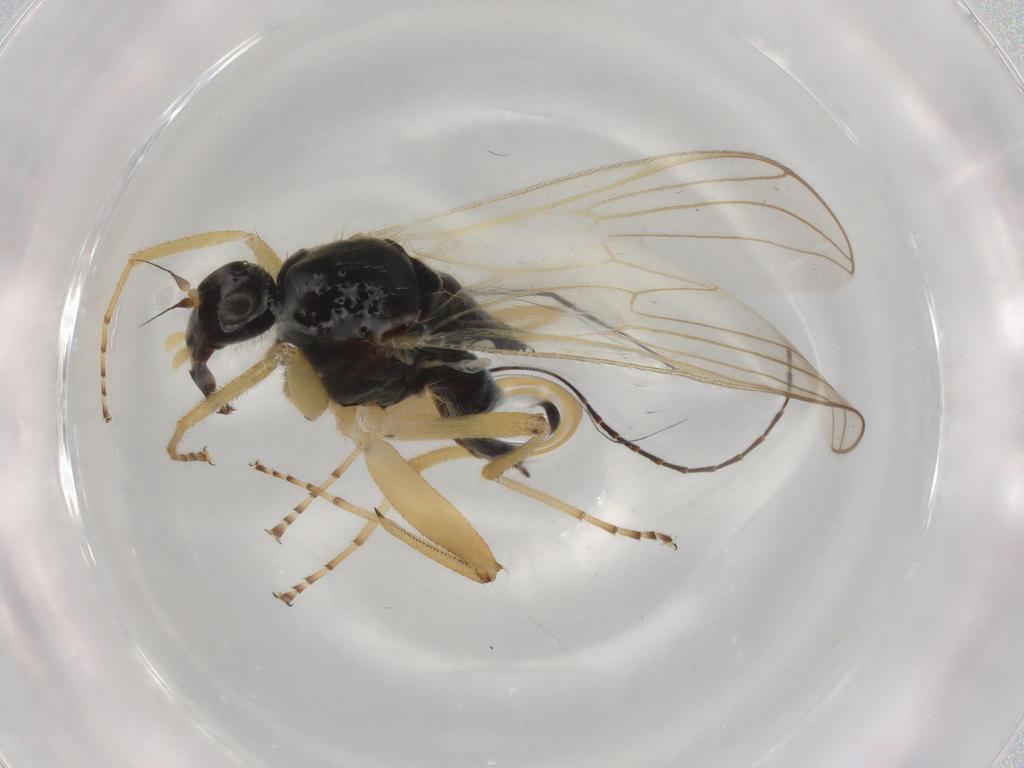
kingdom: Animalia
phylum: Arthropoda
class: Insecta
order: Diptera
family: Hybotidae
